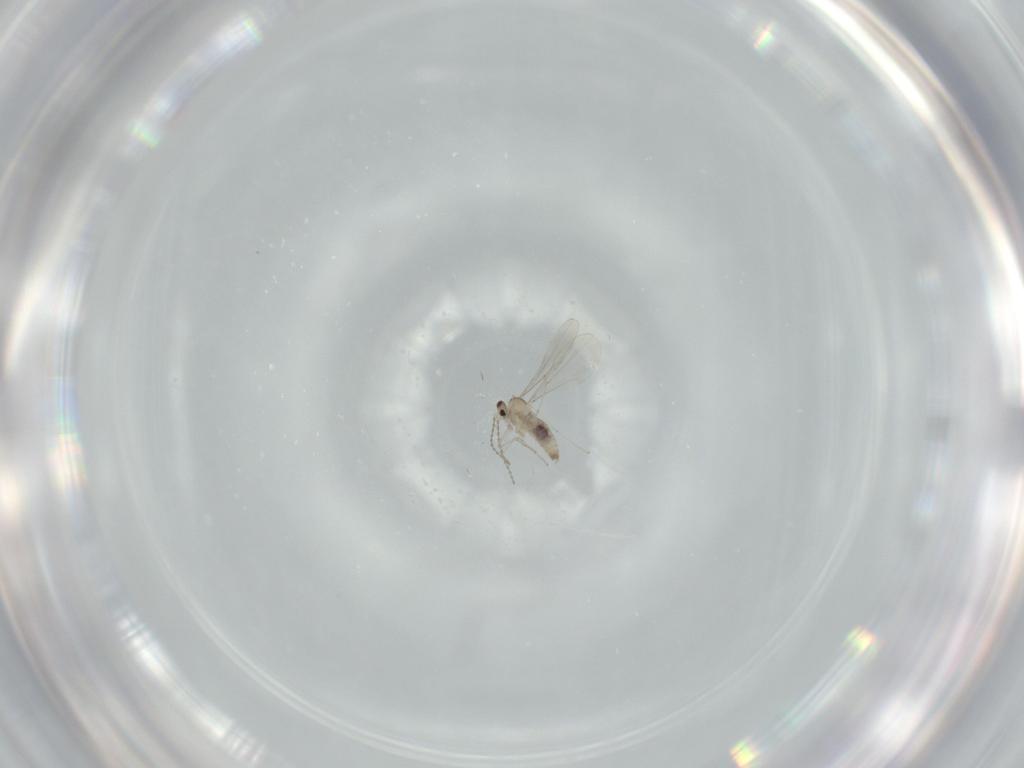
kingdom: Animalia
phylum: Arthropoda
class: Insecta
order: Diptera
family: Cecidomyiidae
